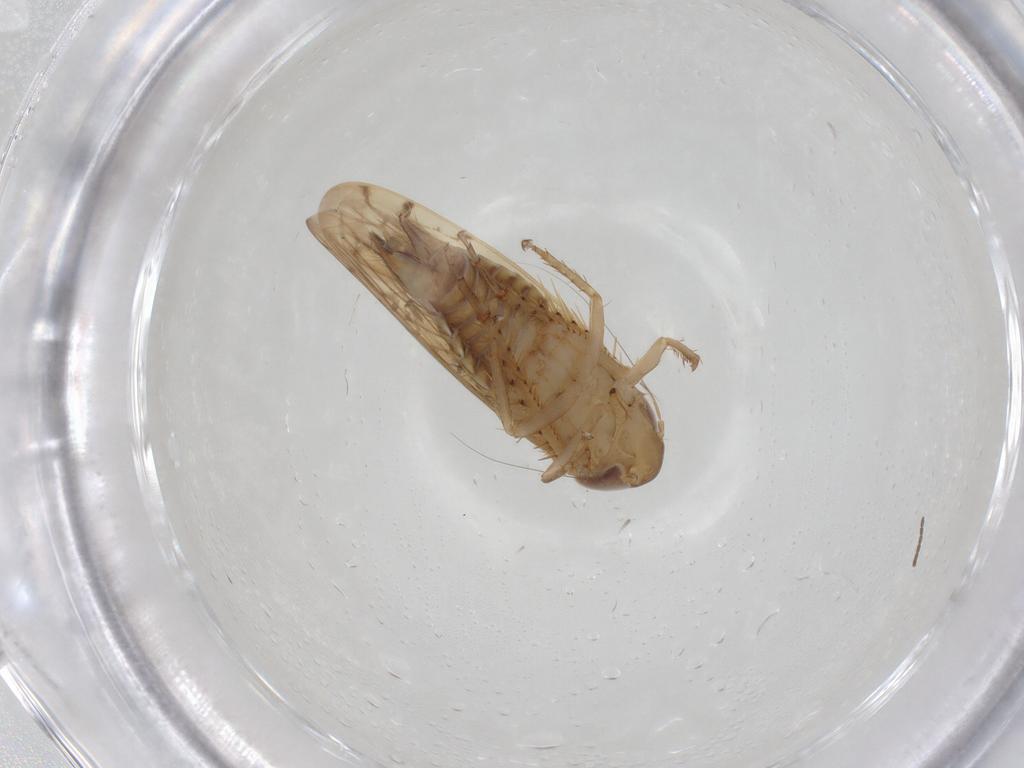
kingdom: Animalia
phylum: Arthropoda
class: Insecta
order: Hemiptera
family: Cicadellidae
